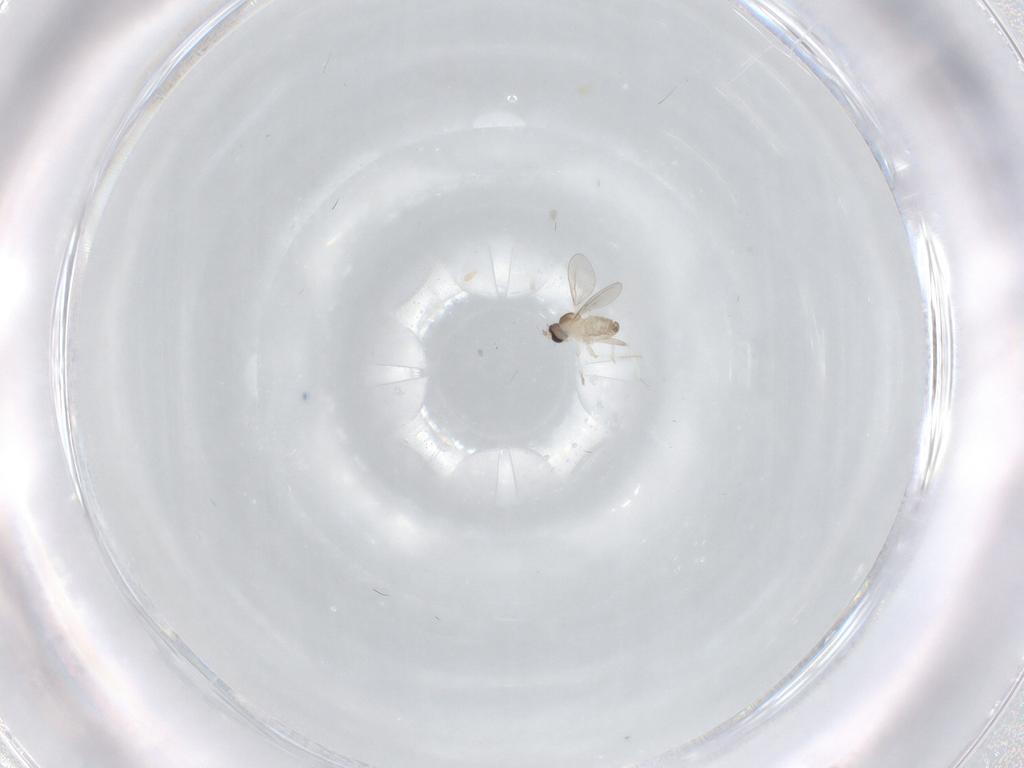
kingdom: Animalia
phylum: Arthropoda
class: Insecta
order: Diptera
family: Cecidomyiidae
